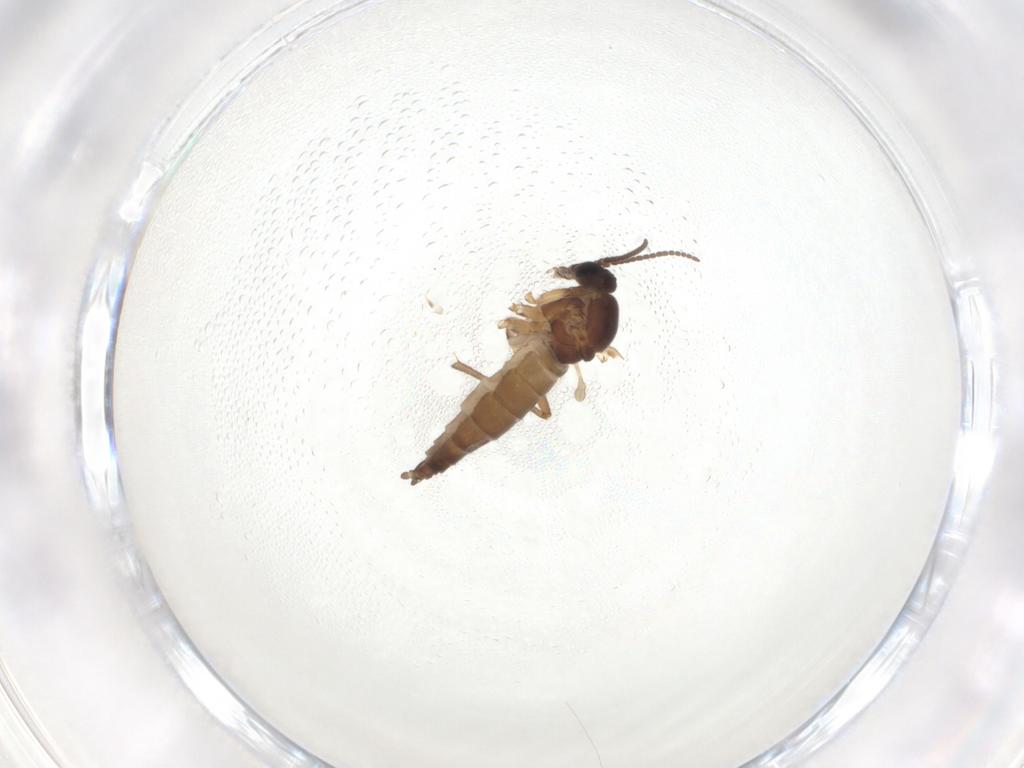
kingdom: Animalia
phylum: Arthropoda
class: Insecta
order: Diptera
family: Sciaridae
